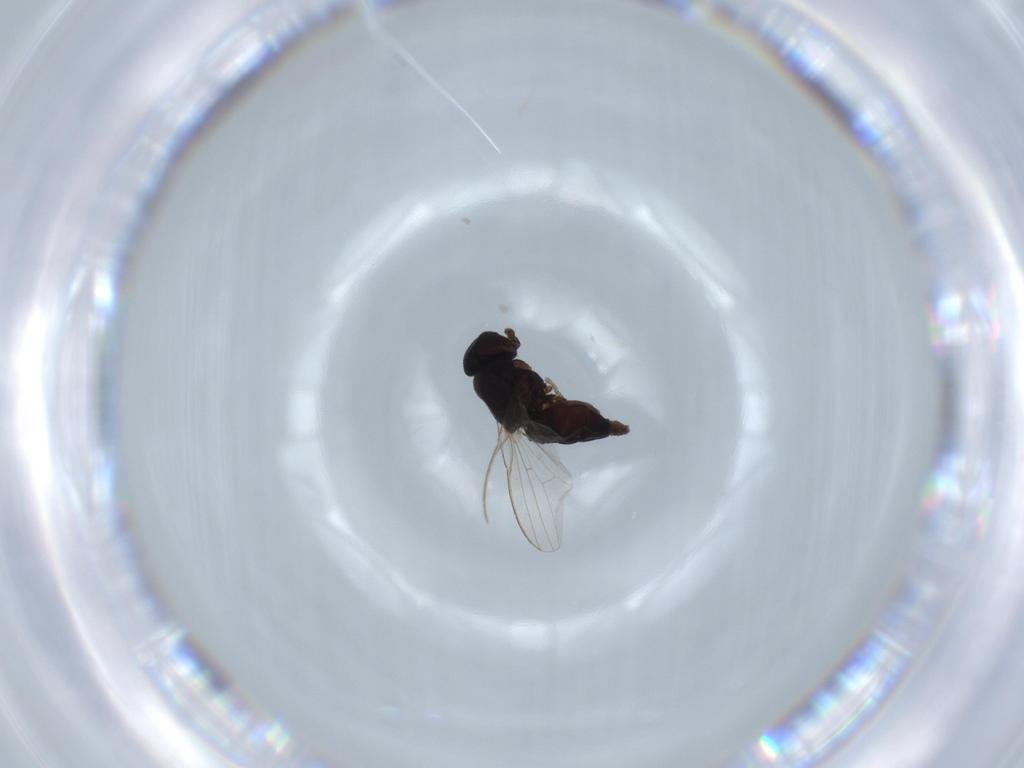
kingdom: Animalia
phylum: Arthropoda
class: Insecta
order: Diptera
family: Milichiidae
